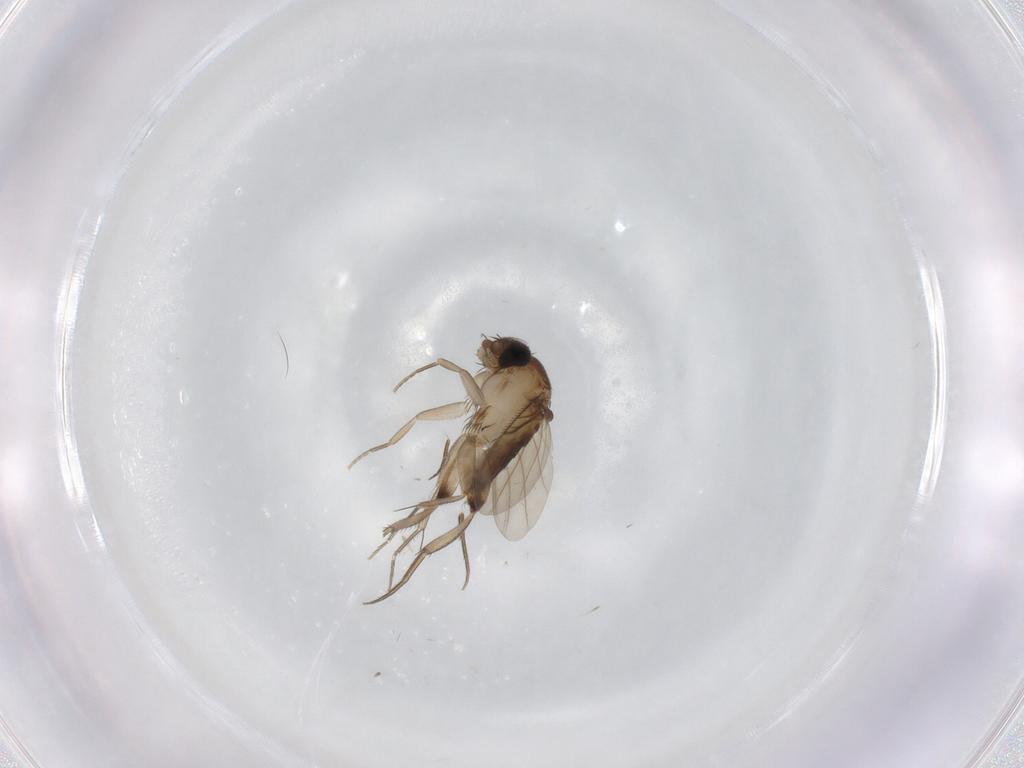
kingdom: Animalia
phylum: Arthropoda
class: Insecta
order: Diptera
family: Phoridae
